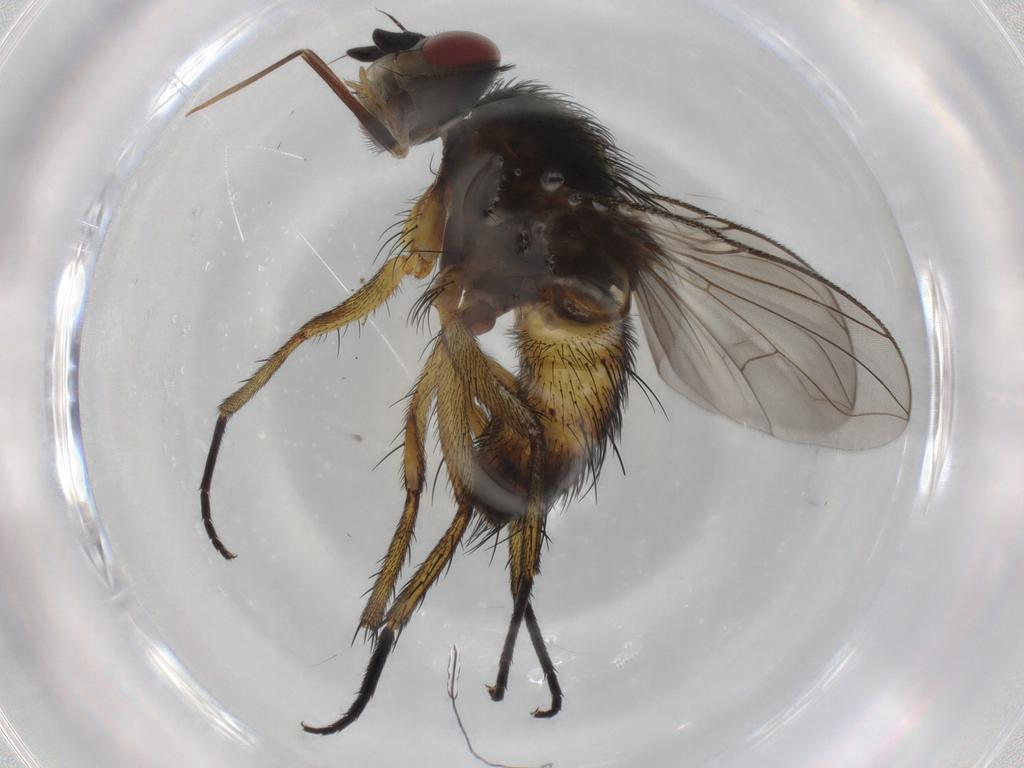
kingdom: Animalia
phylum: Arthropoda
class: Insecta
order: Diptera
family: Tachinidae
